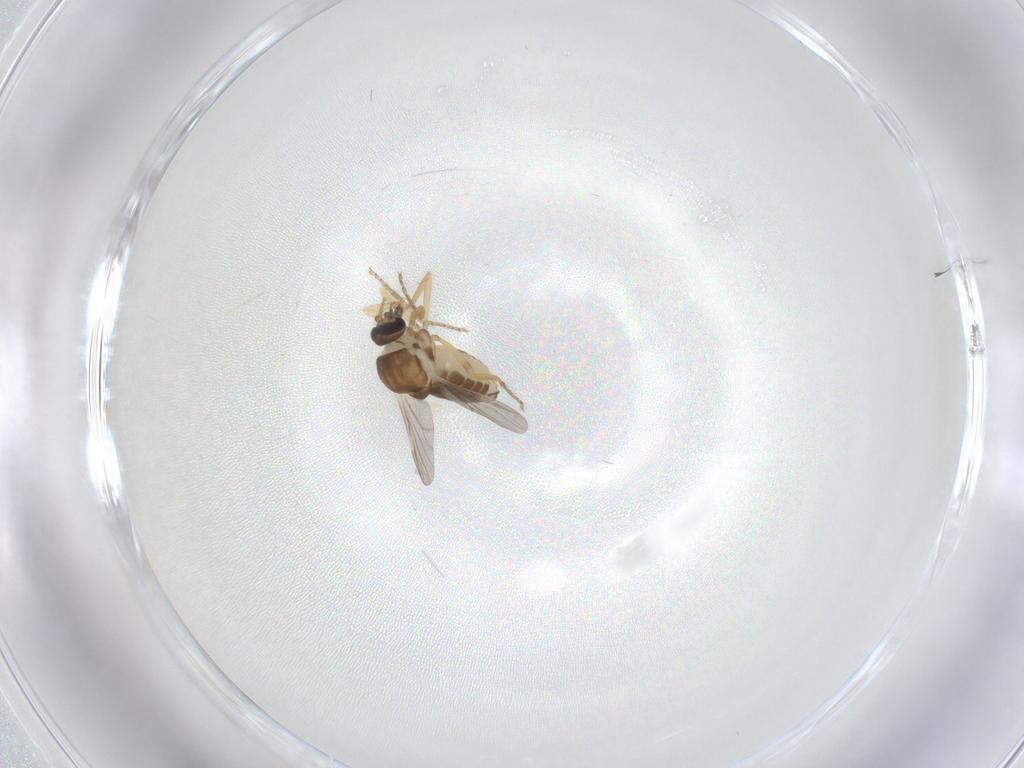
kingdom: Animalia
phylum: Arthropoda
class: Insecta
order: Diptera
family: Ceratopogonidae
